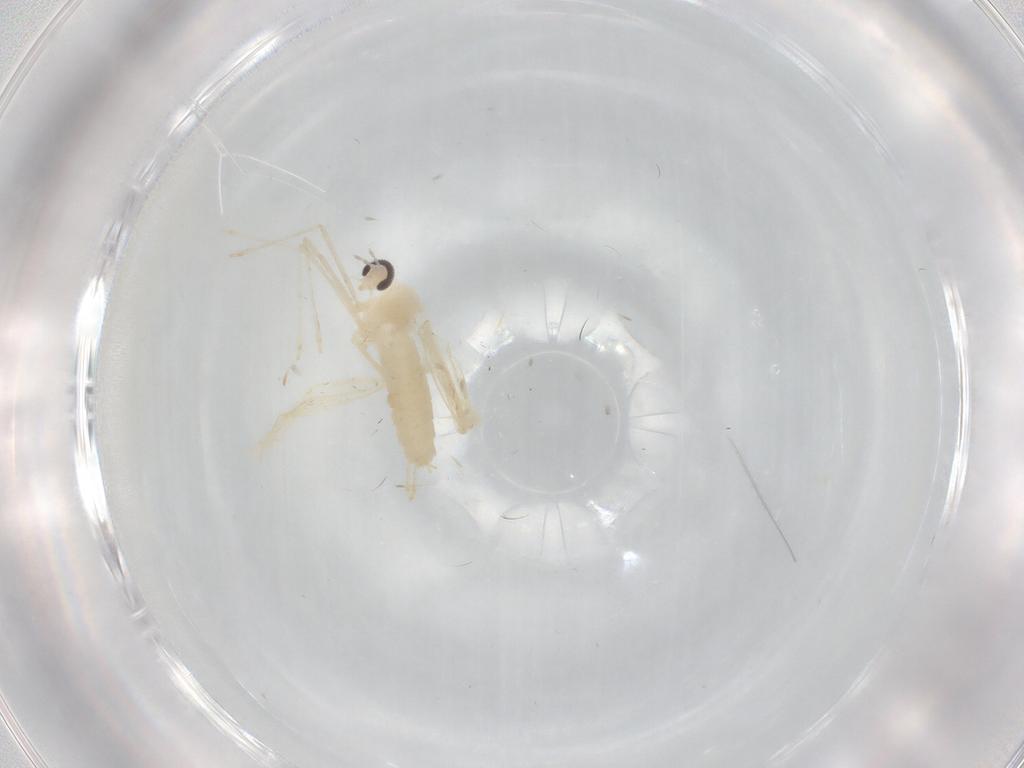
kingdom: Animalia
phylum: Arthropoda
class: Insecta
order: Diptera
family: Cecidomyiidae
